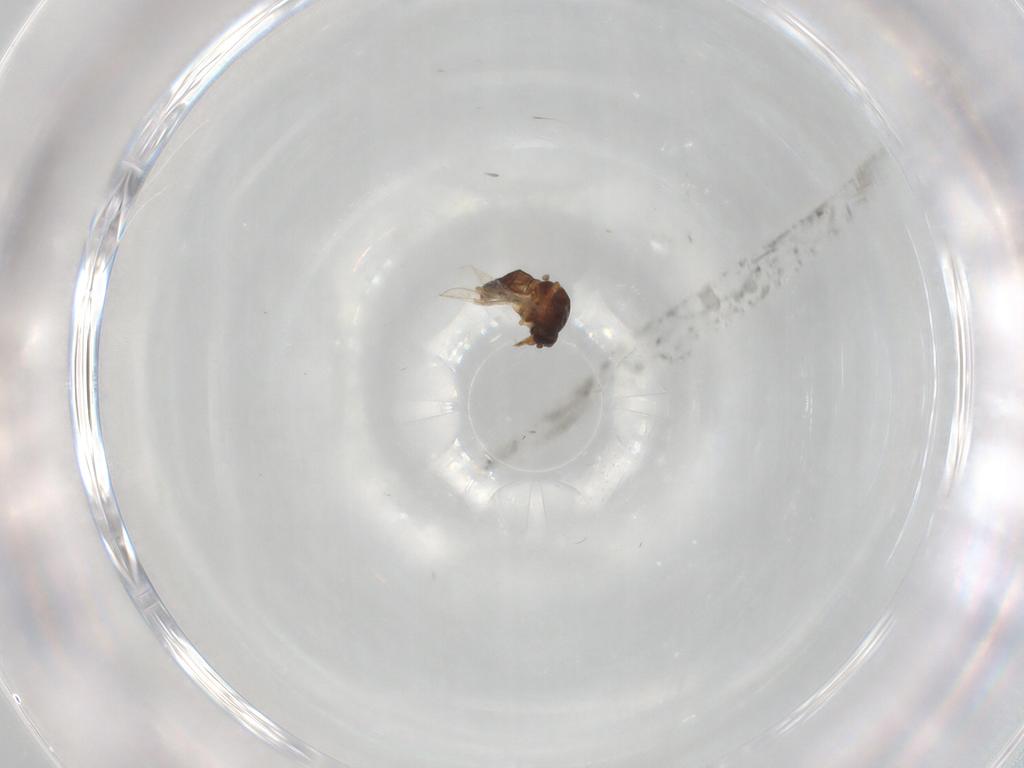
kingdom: Animalia
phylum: Arthropoda
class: Insecta
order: Diptera
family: Ceratopogonidae
